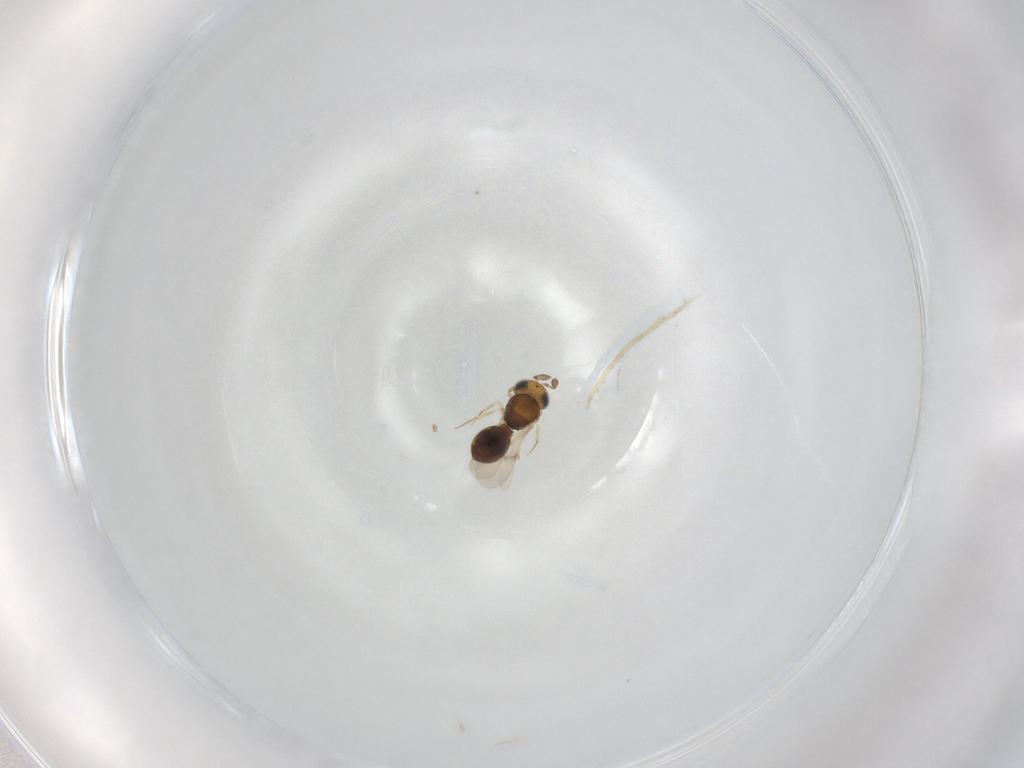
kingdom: Animalia
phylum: Arthropoda
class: Insecta
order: Hymenoptera
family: Scelionidae
